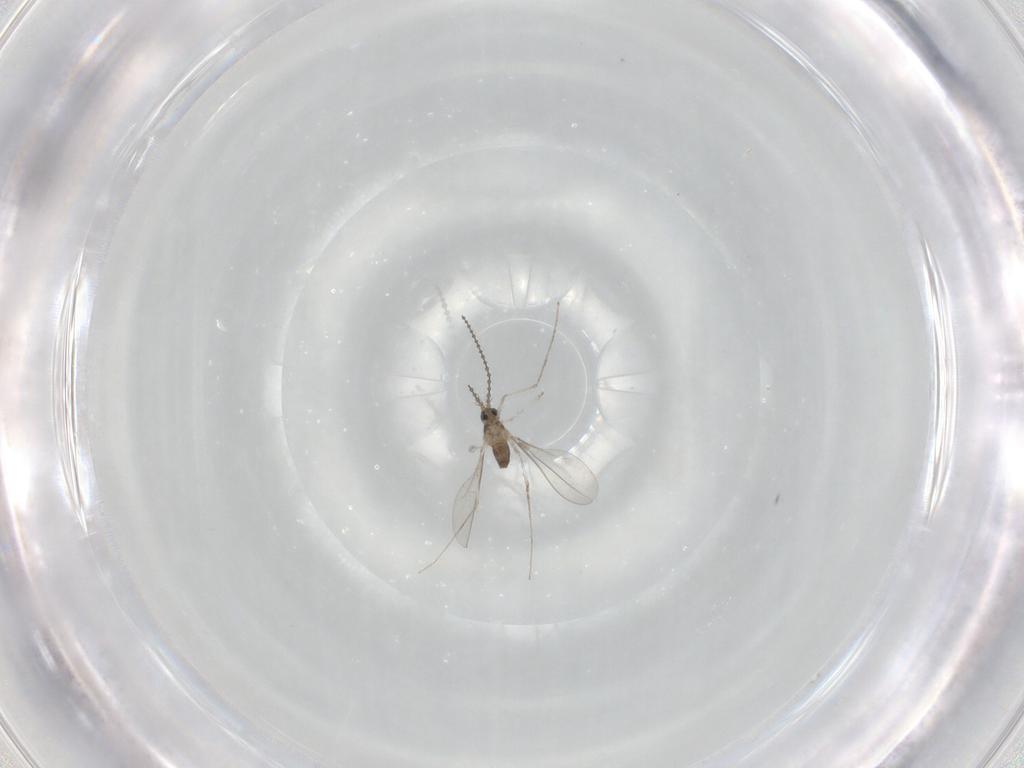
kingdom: Animalia
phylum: Arthropoda
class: Insecta
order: Diptera
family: Cecidomyiidae
